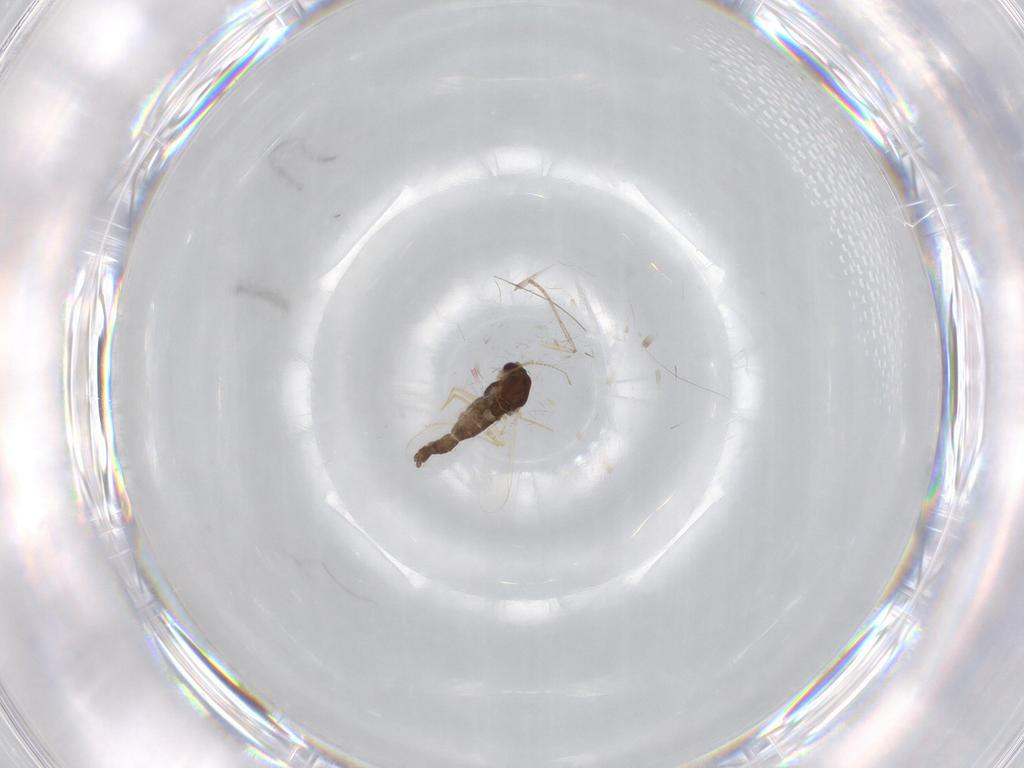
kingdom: Animalia
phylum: Arthropoda
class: Insecta
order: Diptera
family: Chironomidae
